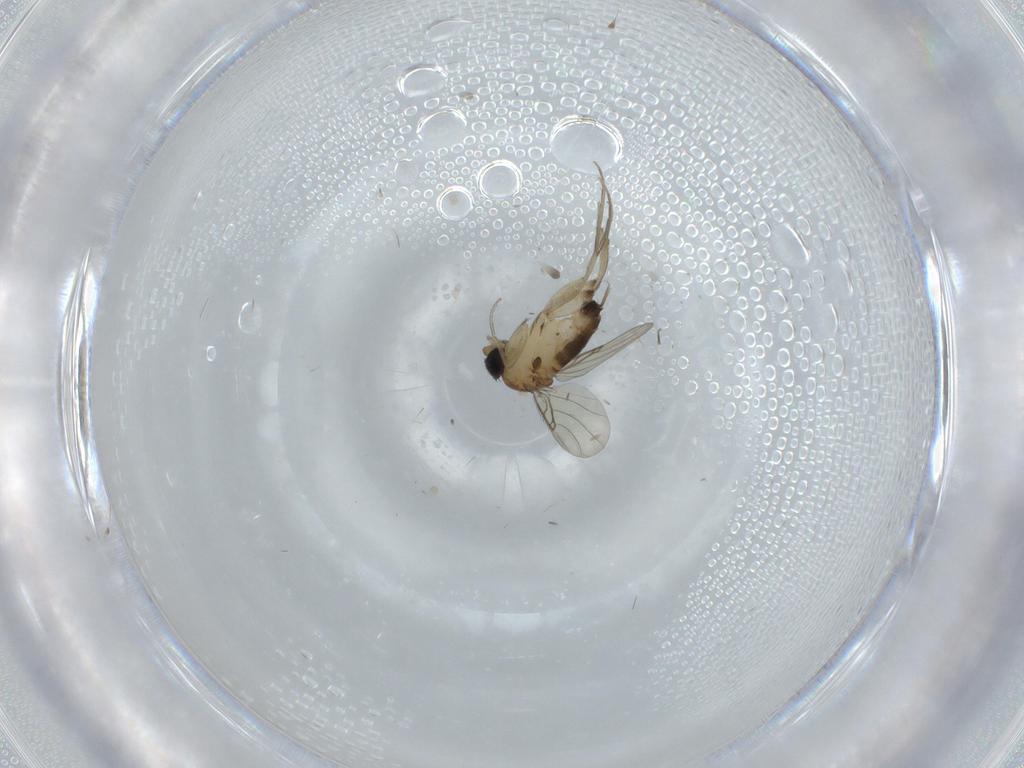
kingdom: Animalia
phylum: Arthropoda
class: Insecta
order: Diptera
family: Phoridae
